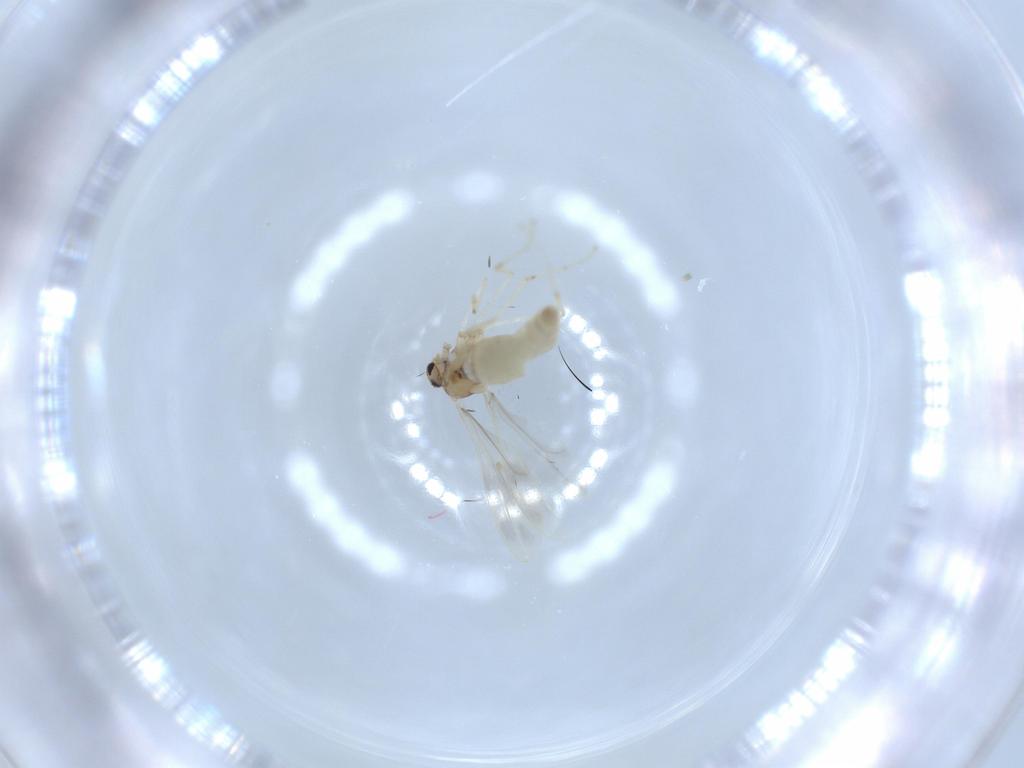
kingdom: Animalia
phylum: Arthropoda
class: Insecta
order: Diptera
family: Cecidomyiidae
